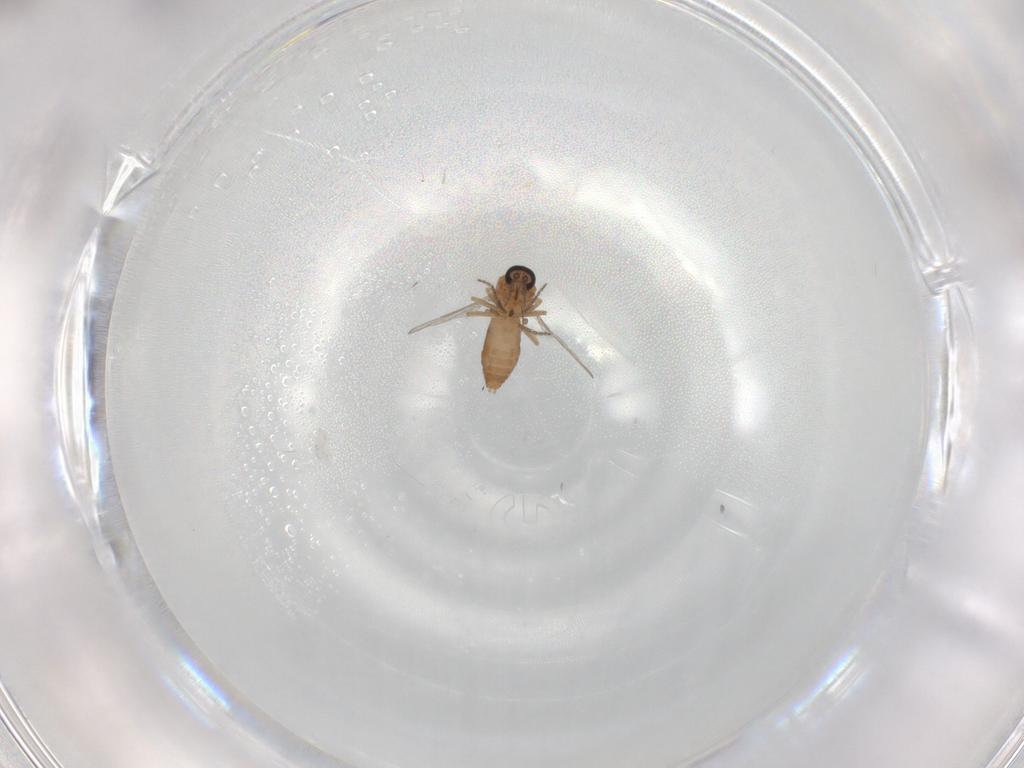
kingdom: Animalia
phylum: Arthropoda
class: Insecta
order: Diptera
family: Ceratopogonidae
